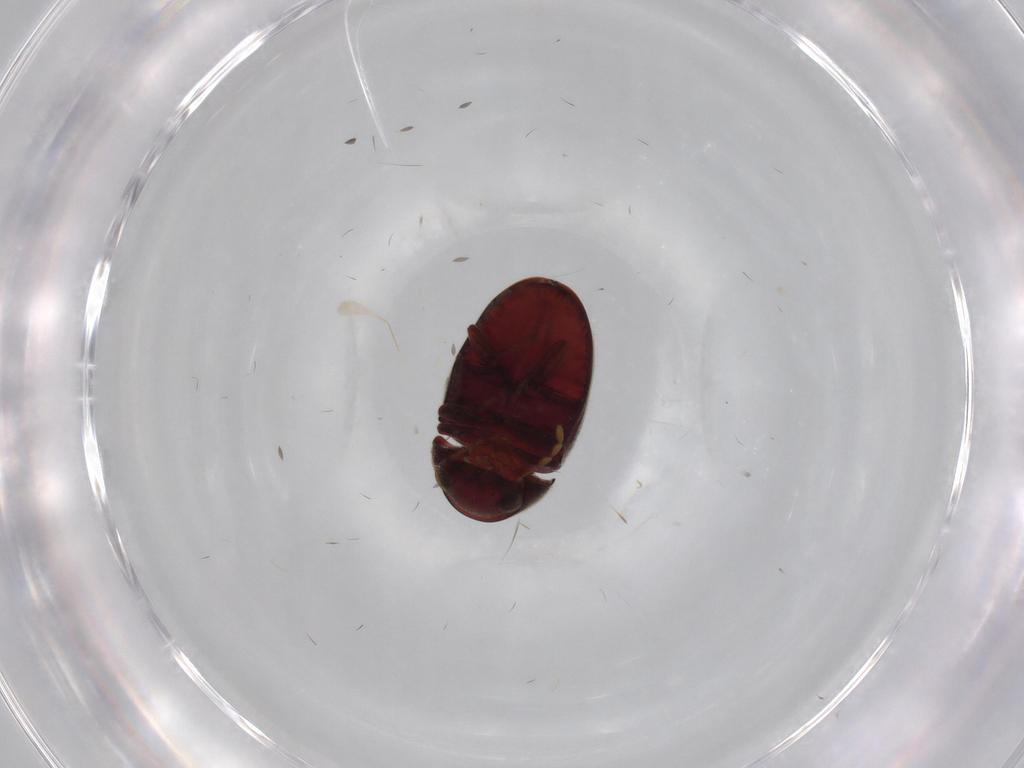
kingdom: Animalia
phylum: Arthropoda
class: Insecta
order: Coleoptera
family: Ptinidae
